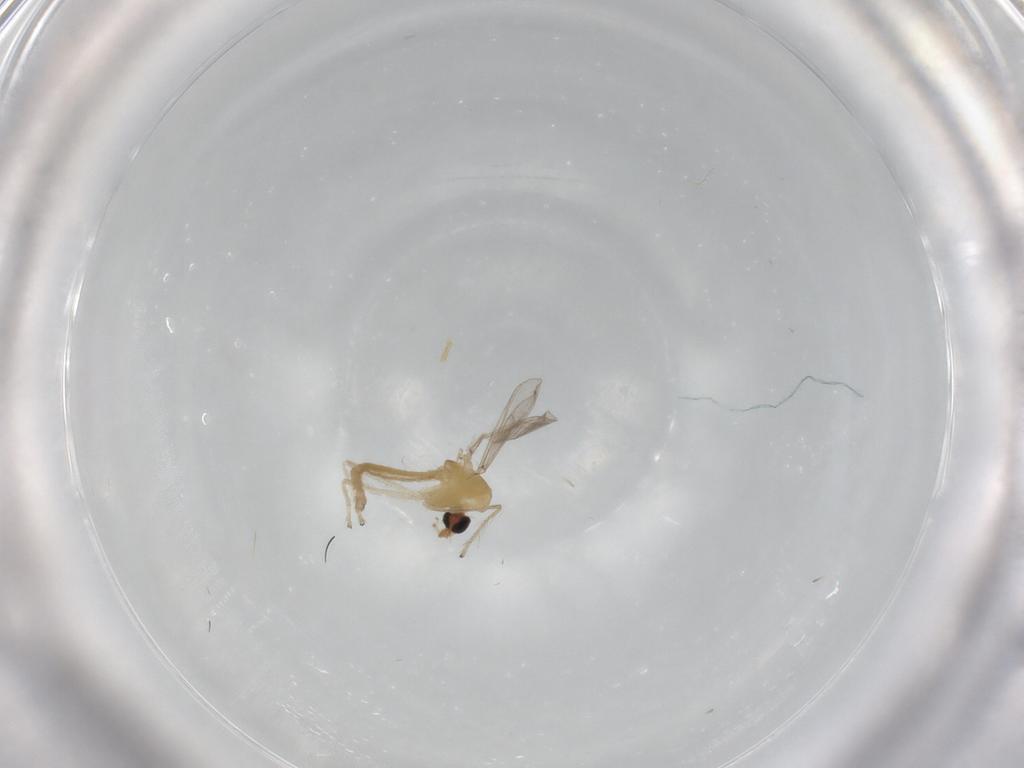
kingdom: Animalia
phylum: Arthropoda
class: Insecta
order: Diptera
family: Chironomidae
